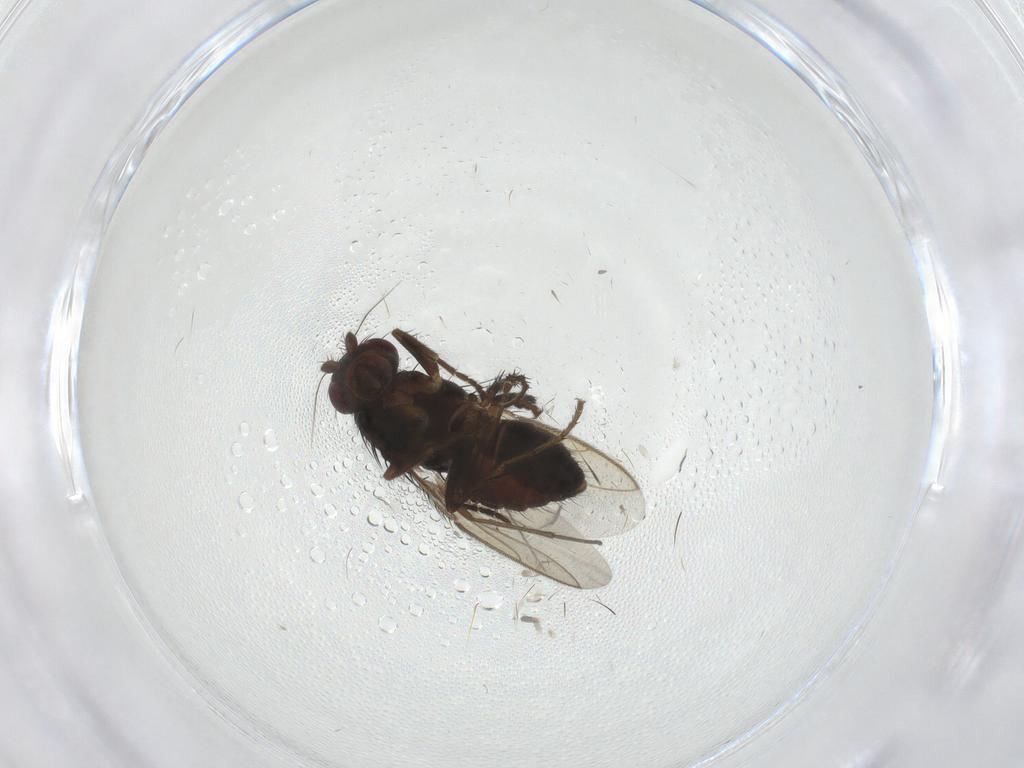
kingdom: Animalia
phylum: Arthropoda
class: Insecta
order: Diptera
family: Sphaeroceridae
